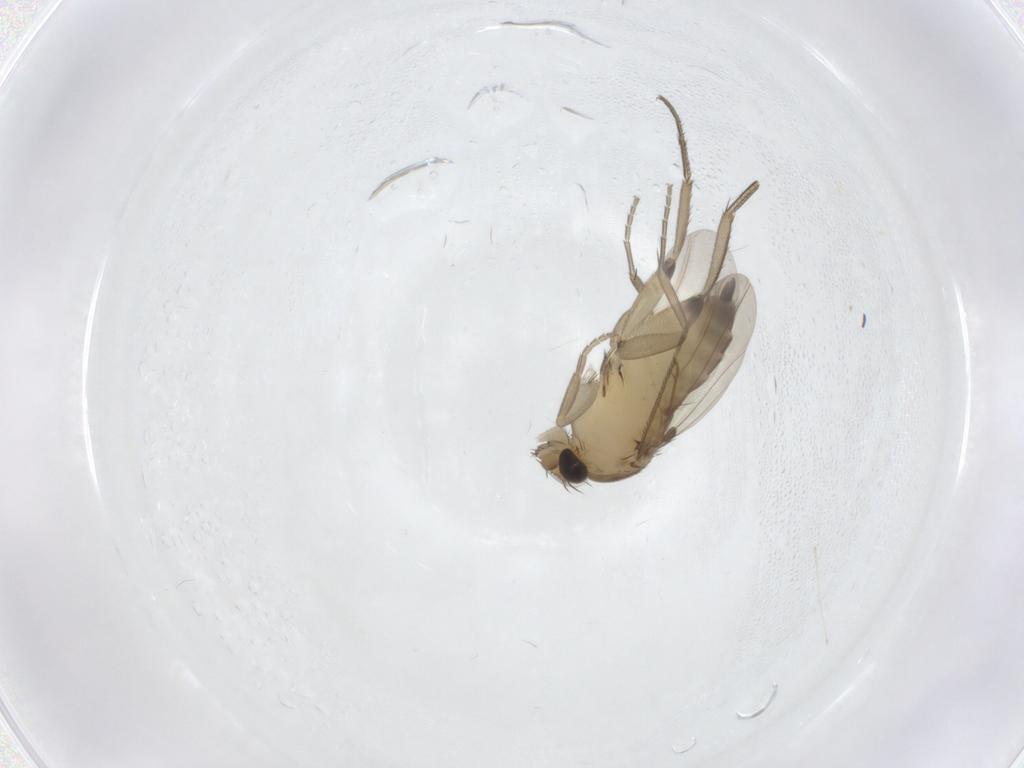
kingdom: Animalia
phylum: Arthropoda
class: Insecta
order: Diptera
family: Phoridae
